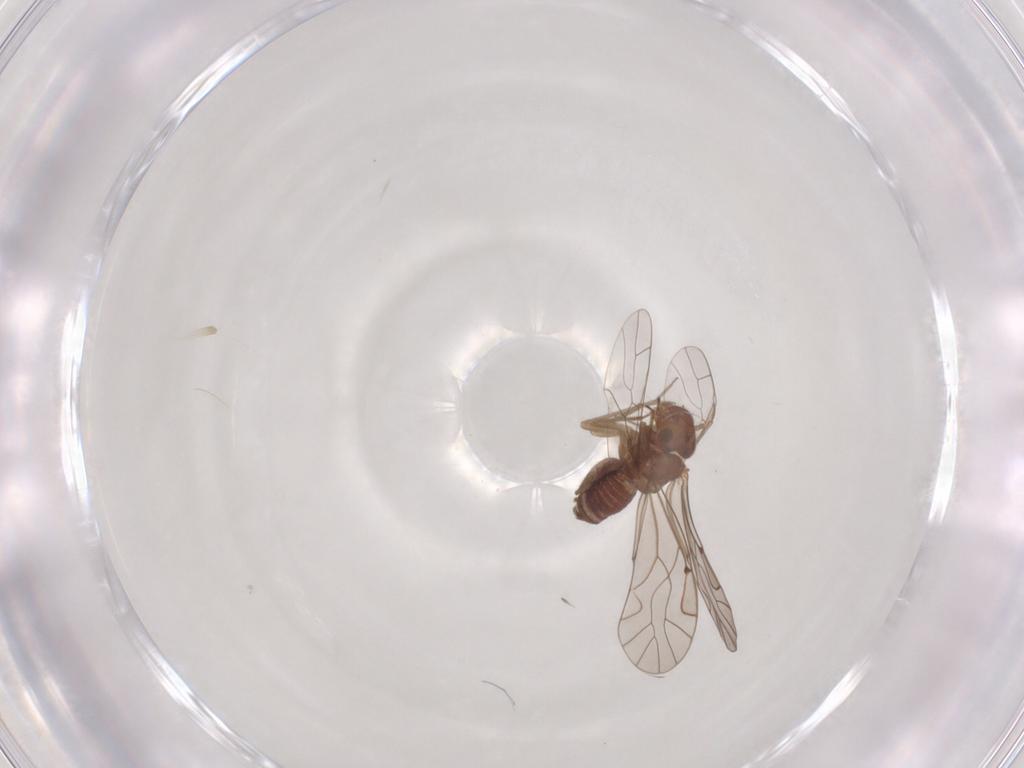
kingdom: Animalia
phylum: Arthropoda
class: Insecta
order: Psocodea
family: Lachesillidae
